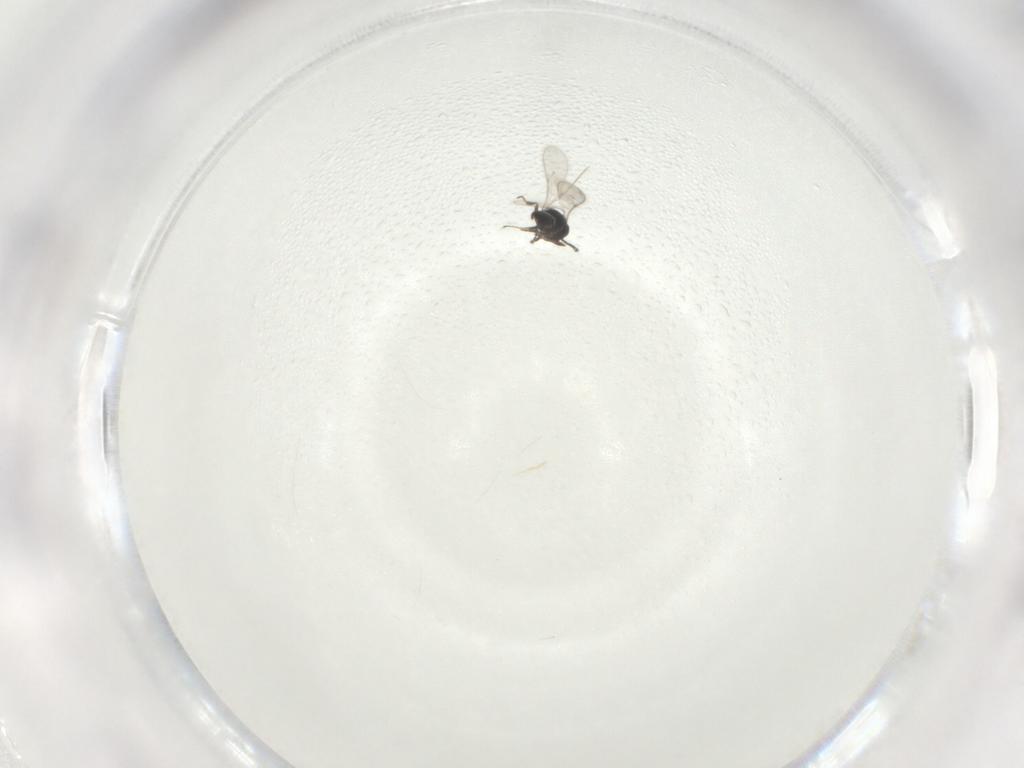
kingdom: Animalia
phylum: Arthropoda
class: Insecta
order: Hymenoptera
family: Scelionidae
